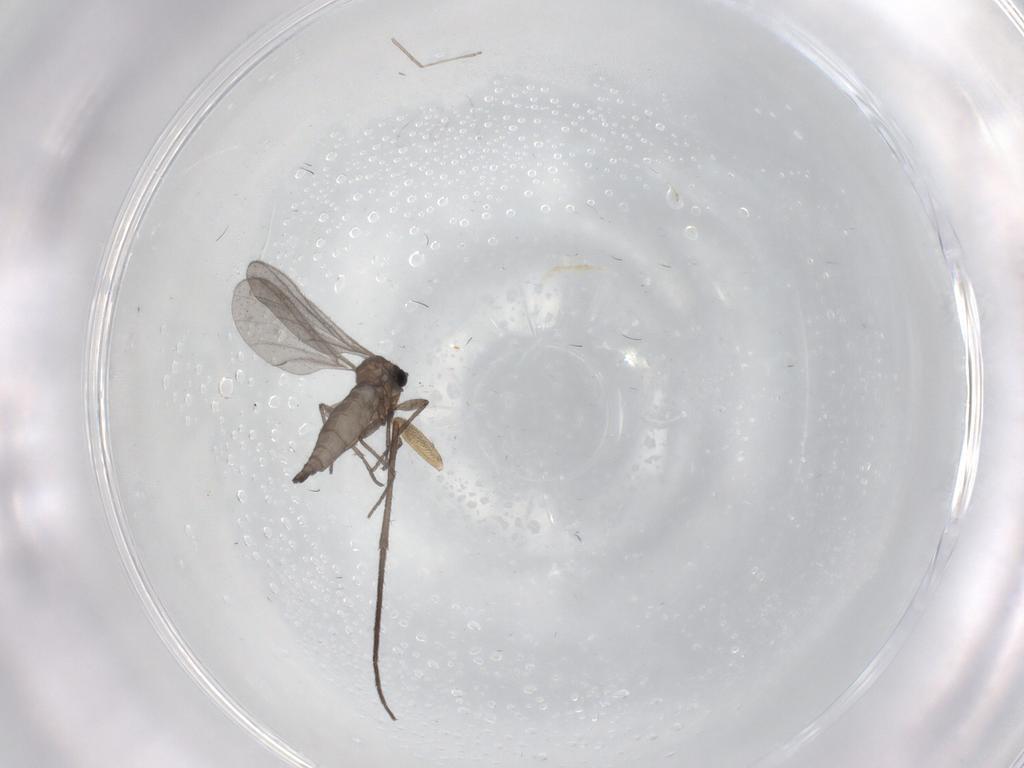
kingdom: Animalia
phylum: Arthropoda
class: Insecta
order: Diptera
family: Sciaridae
